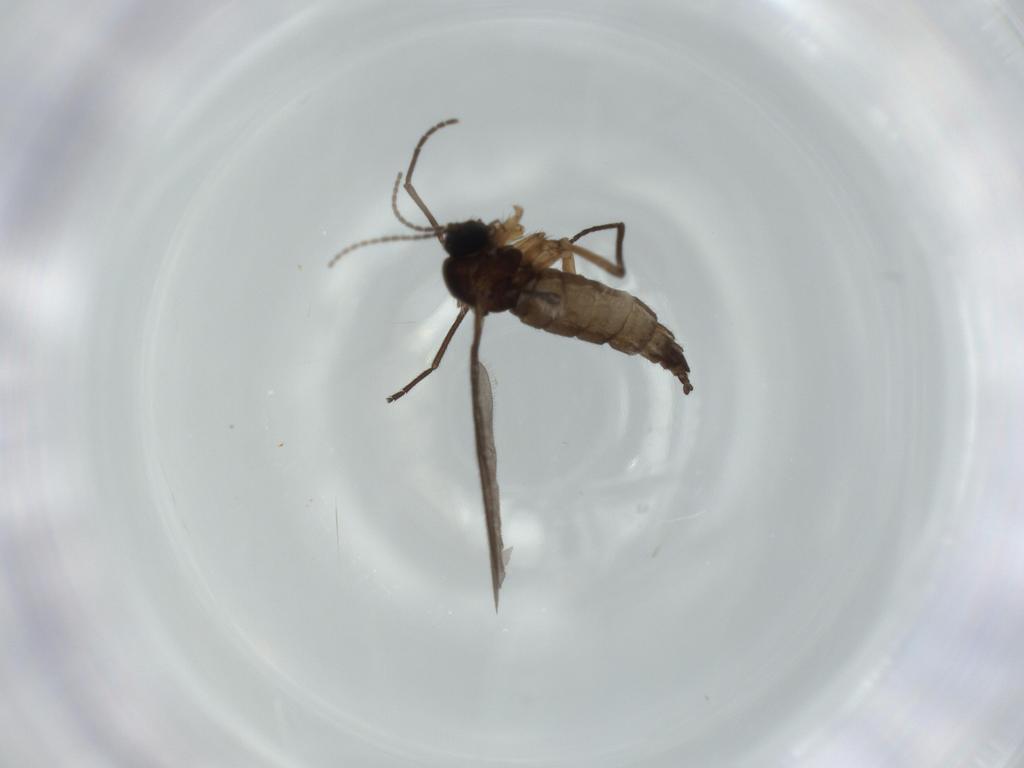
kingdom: Animalia
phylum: Arthropoda
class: Insecta
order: Diptera
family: Sciaridae
